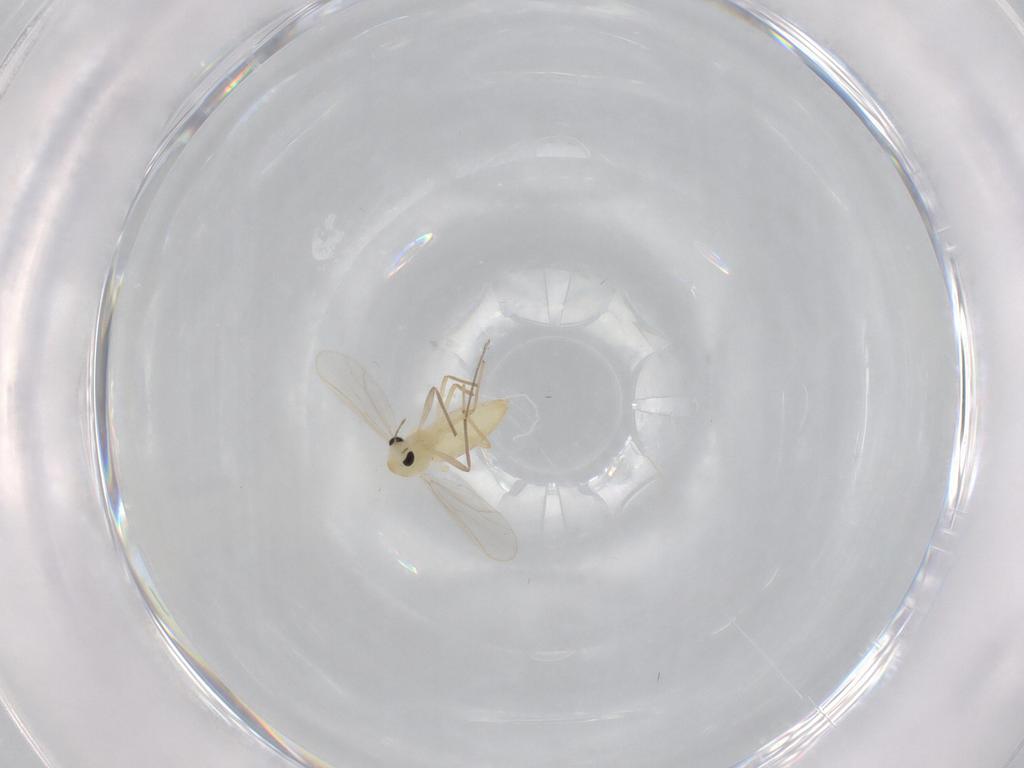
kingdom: Animalia
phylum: Arthropoda
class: Insecta
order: Diptera
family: Chironomidae
